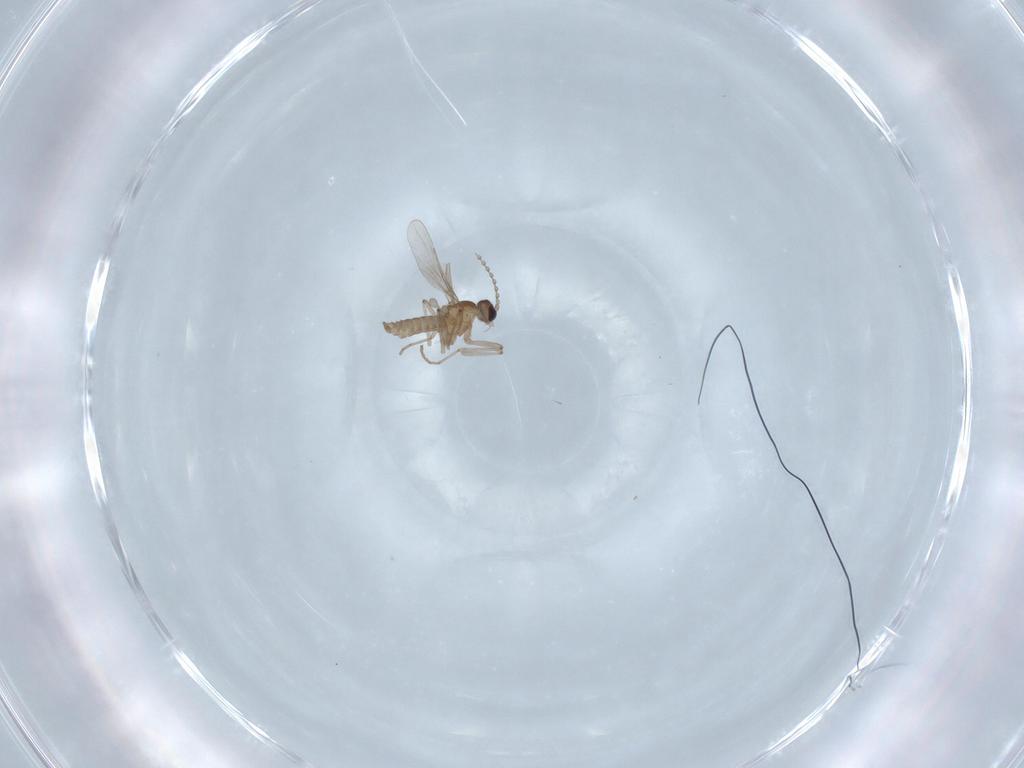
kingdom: Animalia
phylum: Arthropoda
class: Insecta
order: Diptera
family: Cecidomyiidae
